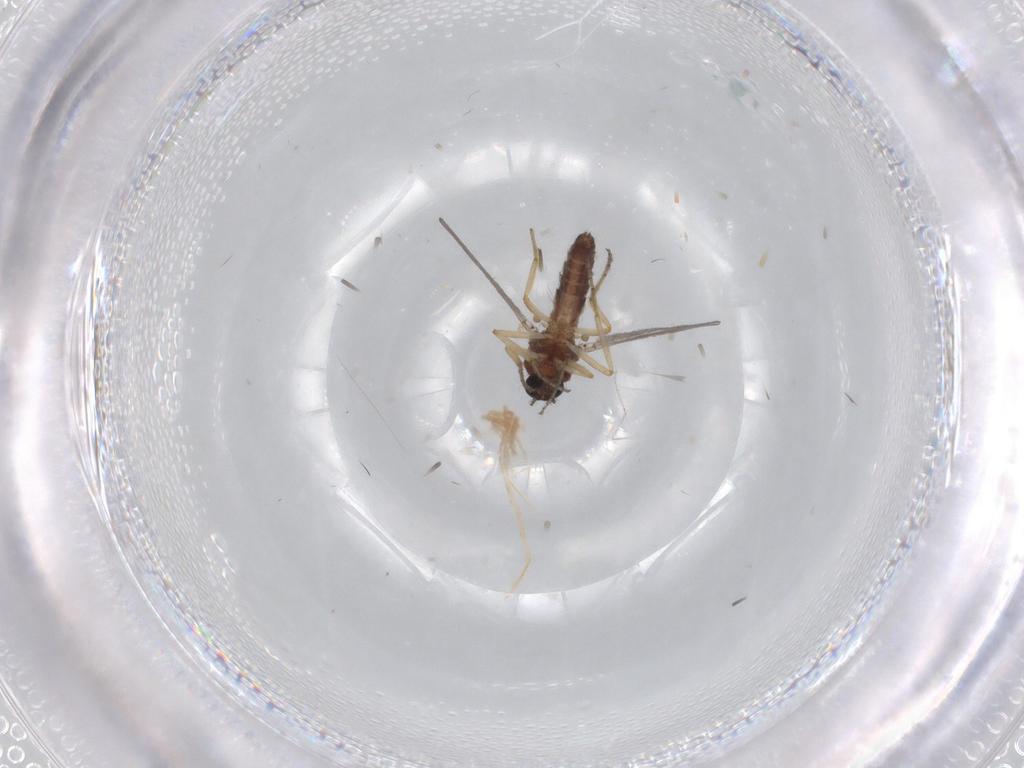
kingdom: Animalia
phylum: Arthropoda
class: Insecta
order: Diptera
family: Ceratopogonidae
